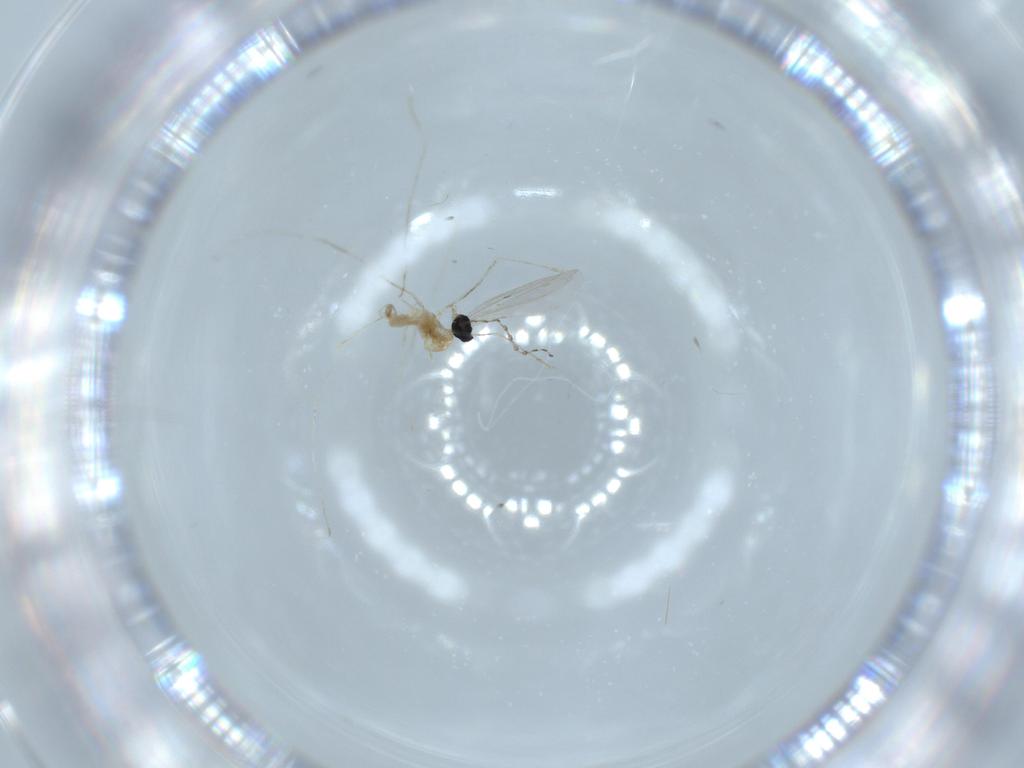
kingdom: Animalia
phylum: Arthropoda
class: Insecta
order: Diptera
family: Cecidomyiidae
